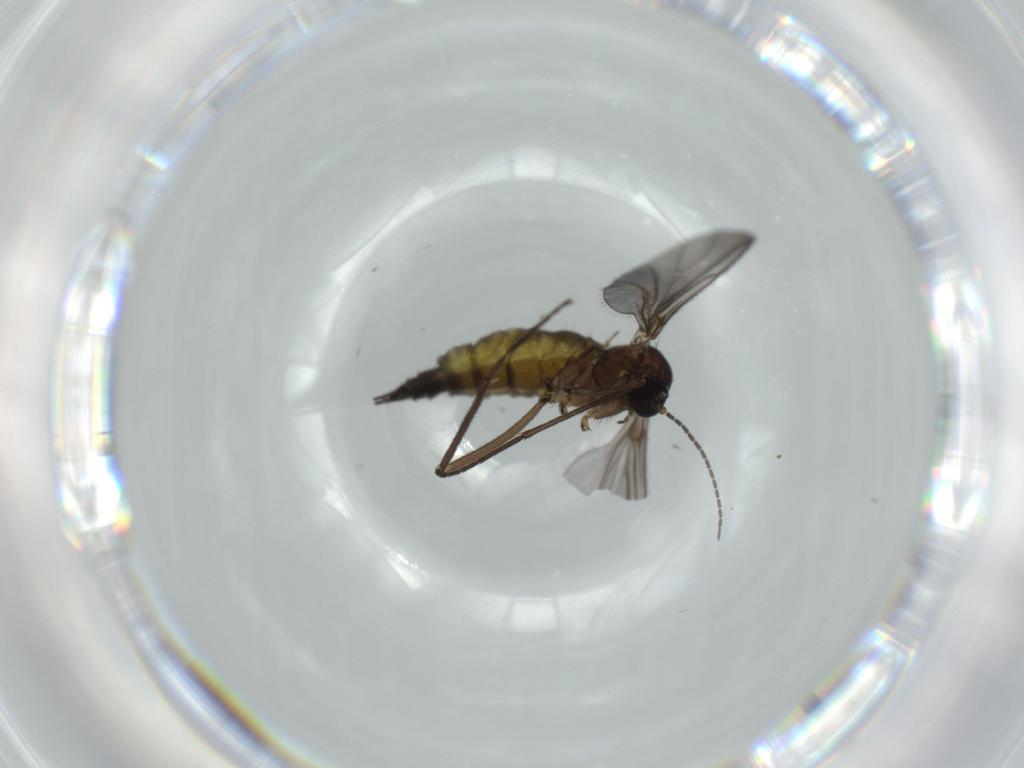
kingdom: Animalia
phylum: Arthropoda
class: Insecta
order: Diptera
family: Sciaridae
